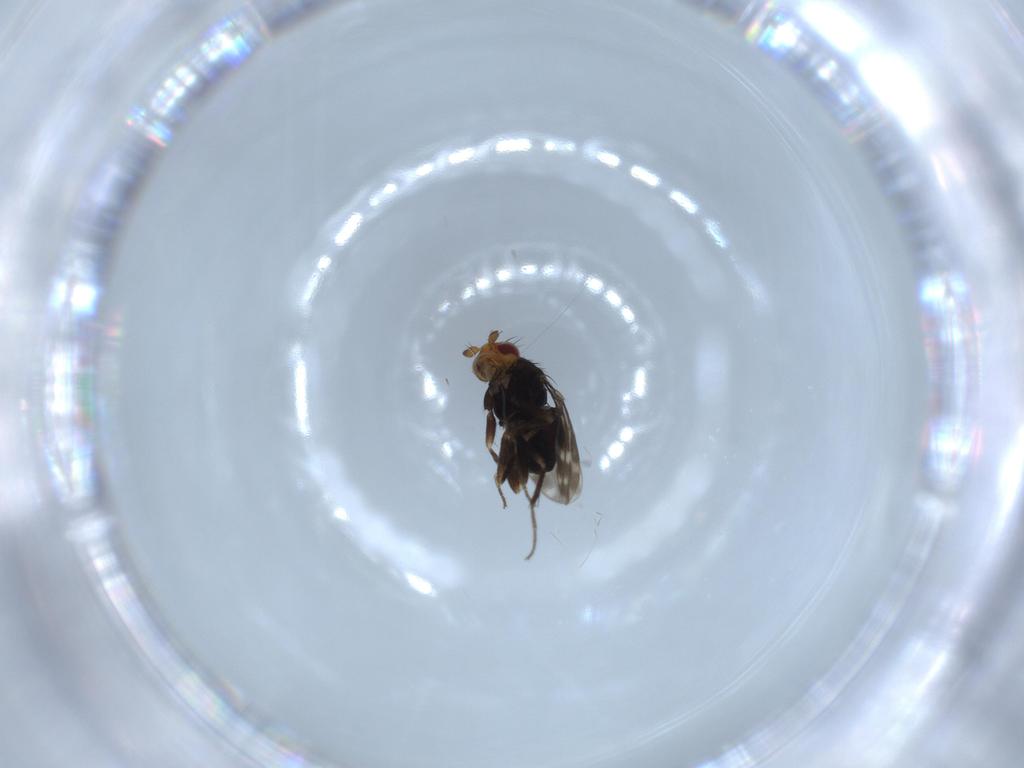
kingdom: Animalia
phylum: Arthropoda
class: Insecta
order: Diptera
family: Sphaeroceridae
